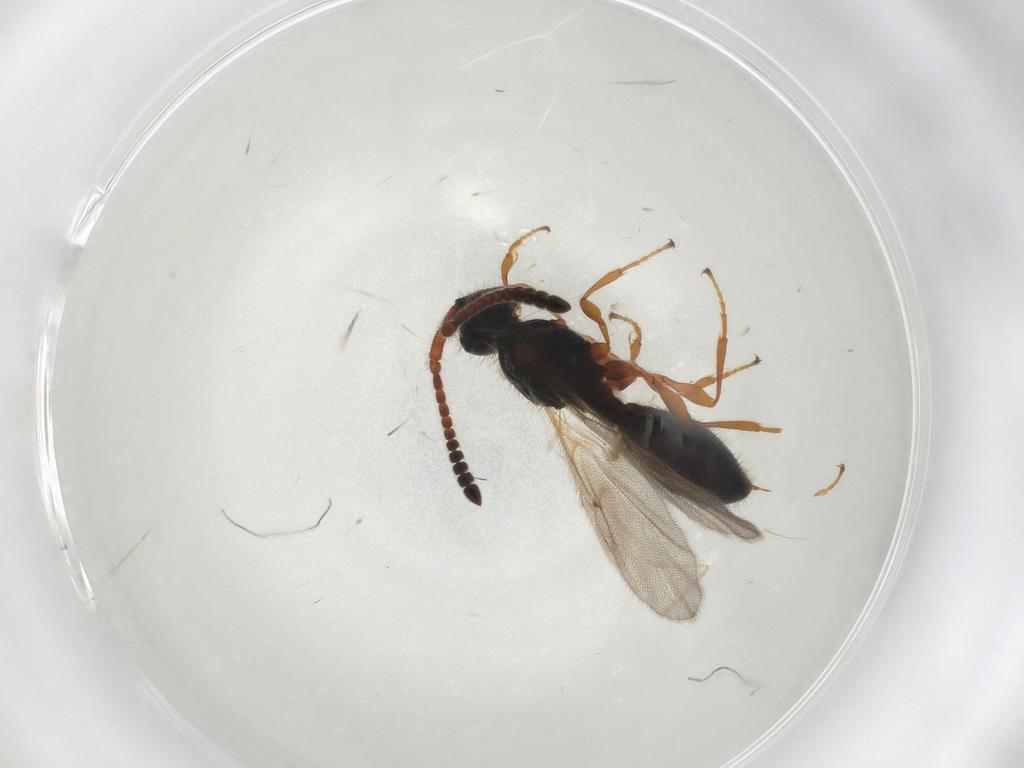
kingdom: Animalia
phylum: Arthropoda
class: Insecta
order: Hymenoptera
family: Diapriidae
